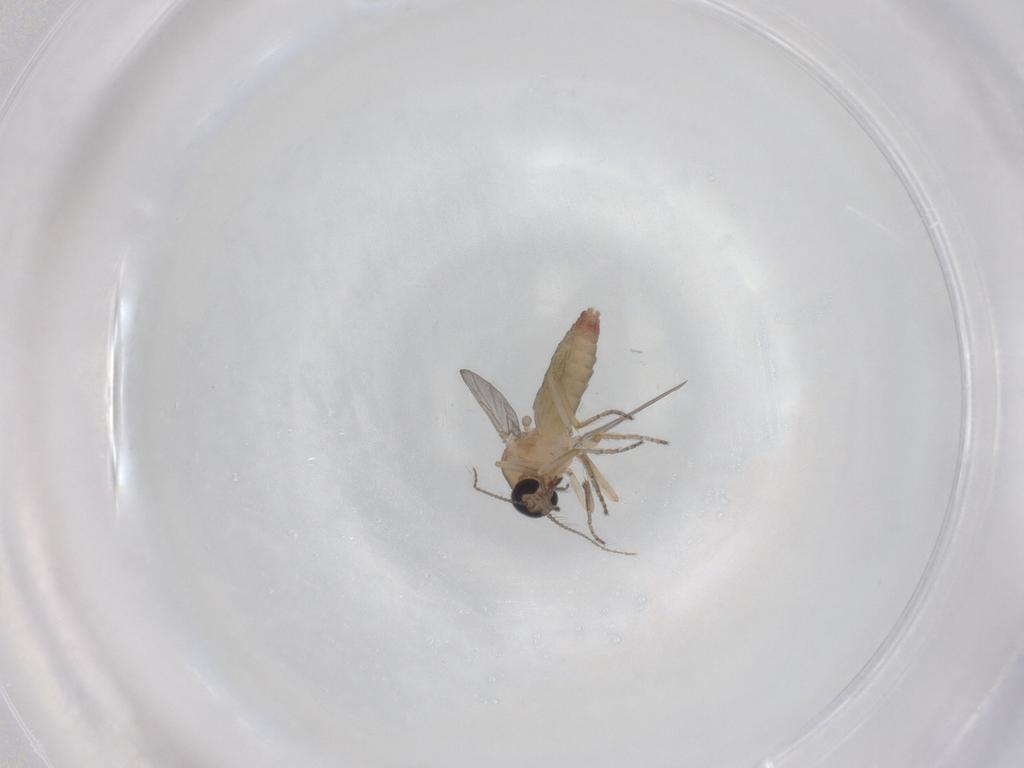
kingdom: Animalia
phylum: Arthropoda
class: Insecta
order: Diptera
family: Ceratopogonidae
